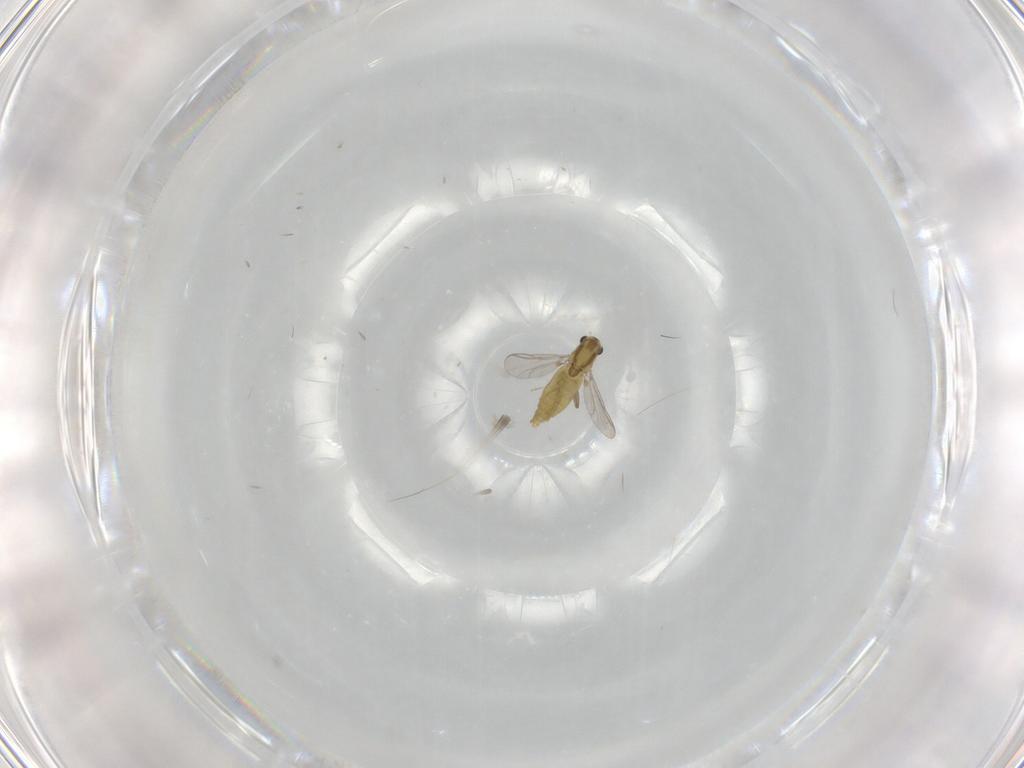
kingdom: Animalia
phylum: Arthropoda
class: Insecta
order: Diptera
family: Chironomidae
